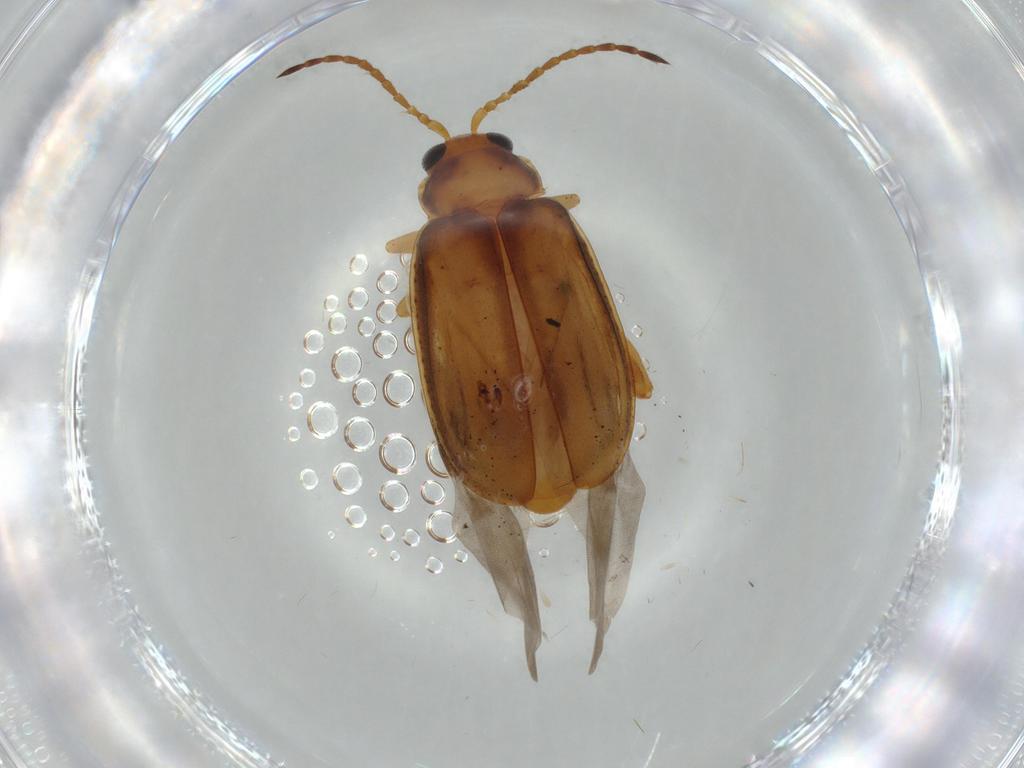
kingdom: Animalia
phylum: Arthropoda
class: Insecta
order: Coleoptera
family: Chrysomelidae
